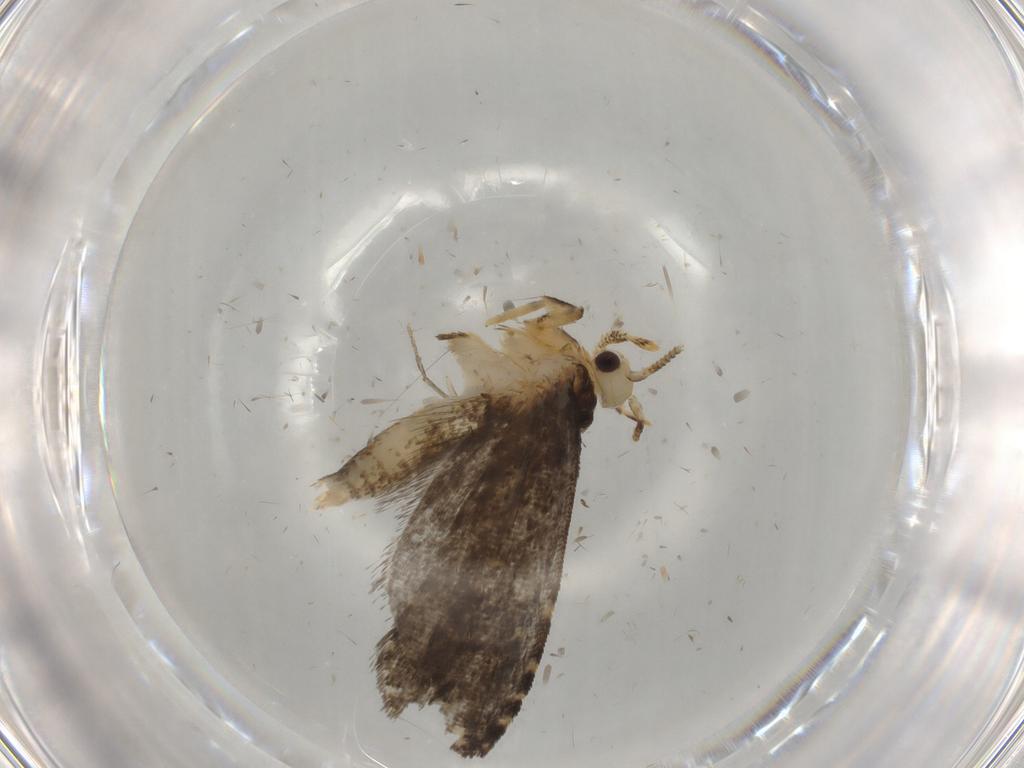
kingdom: Animalia
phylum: Arthropoda
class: Insecta
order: Lepidoptera
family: Tineidae
